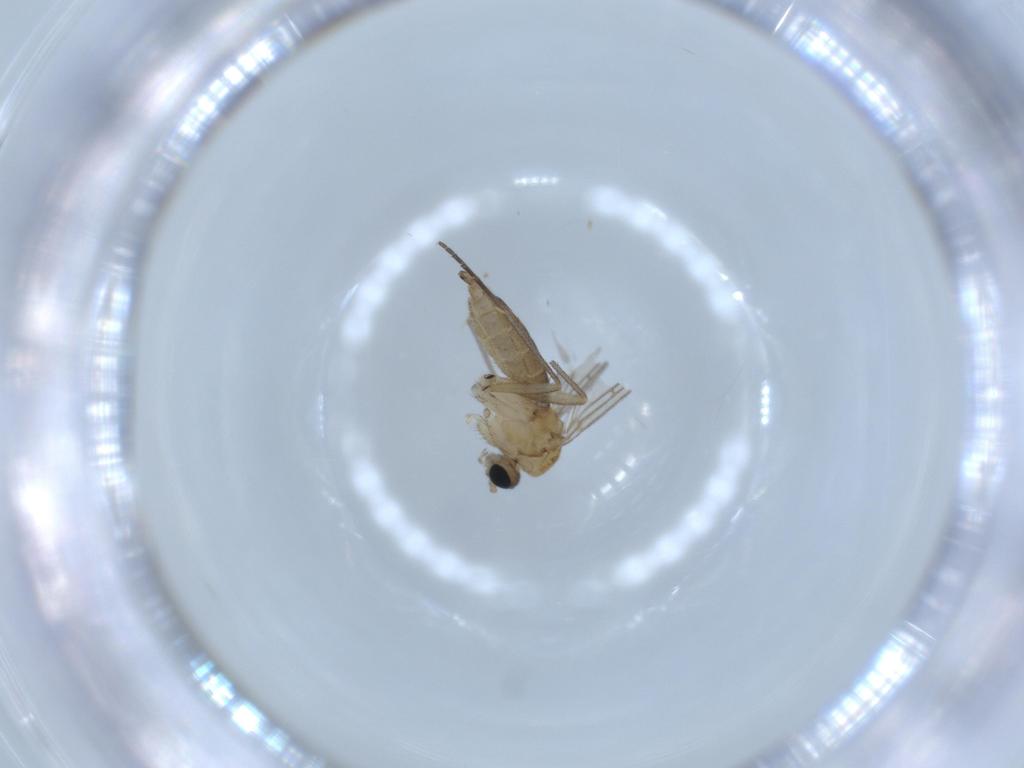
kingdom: Animalia
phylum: Arthropoda
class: Insecta
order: Diptera
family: Sciaridae
